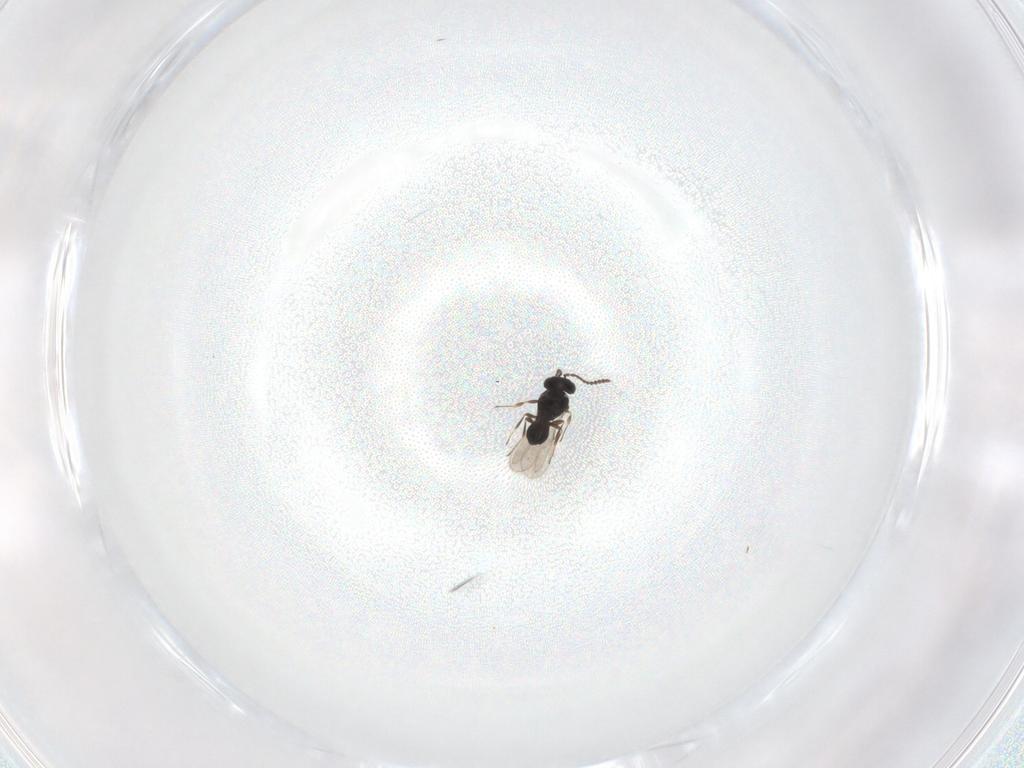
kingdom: Animalia
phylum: Arthropoda
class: Insecta
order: Hymenoptera
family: Scelionidae
